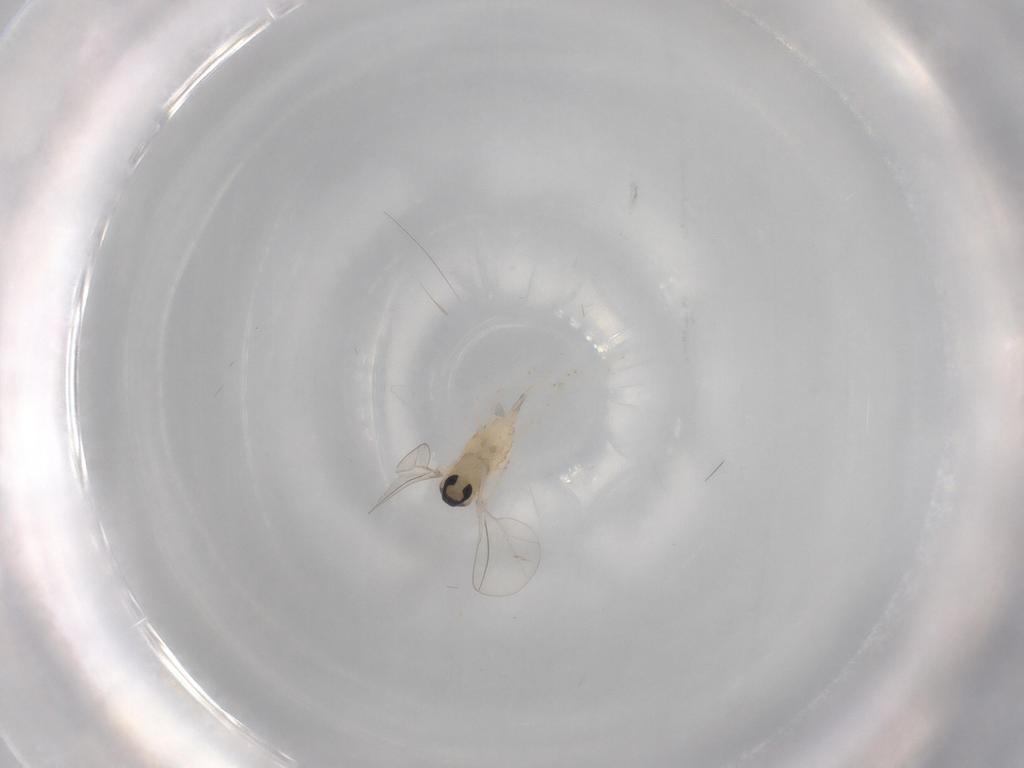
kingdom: Animalia
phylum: Arthropoda
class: Insecta
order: Diptera
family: Cecidomyiidae
